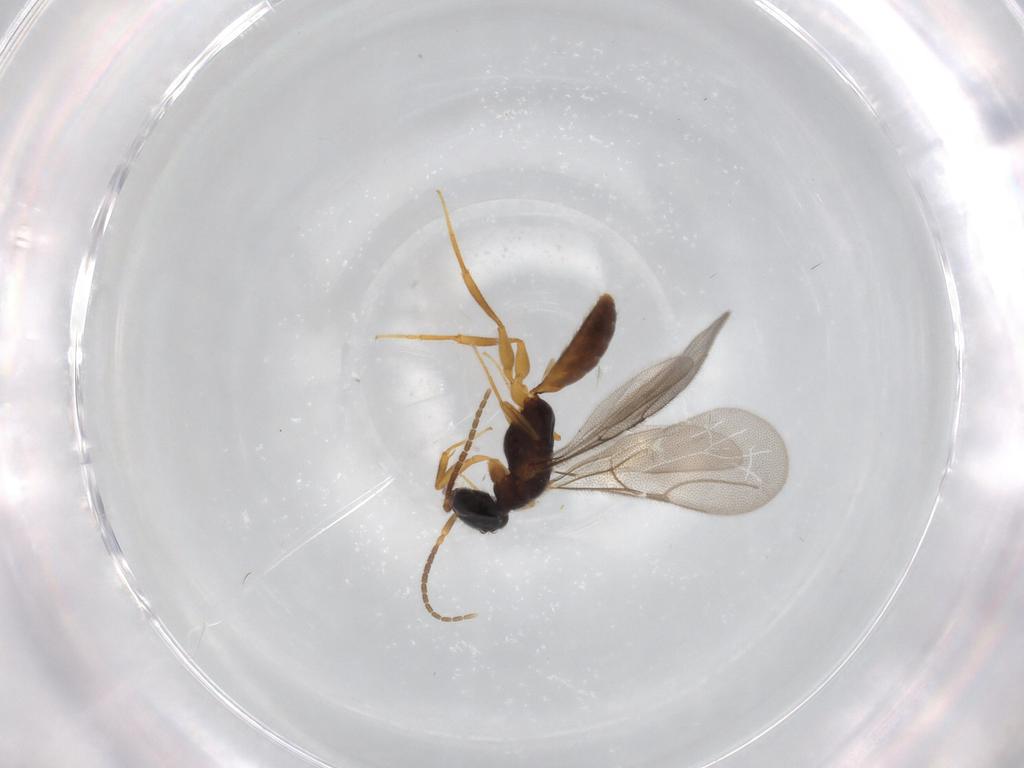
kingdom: Animalia
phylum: Arthropoda
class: Insecta
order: Hymenoptera
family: Bethylidae
